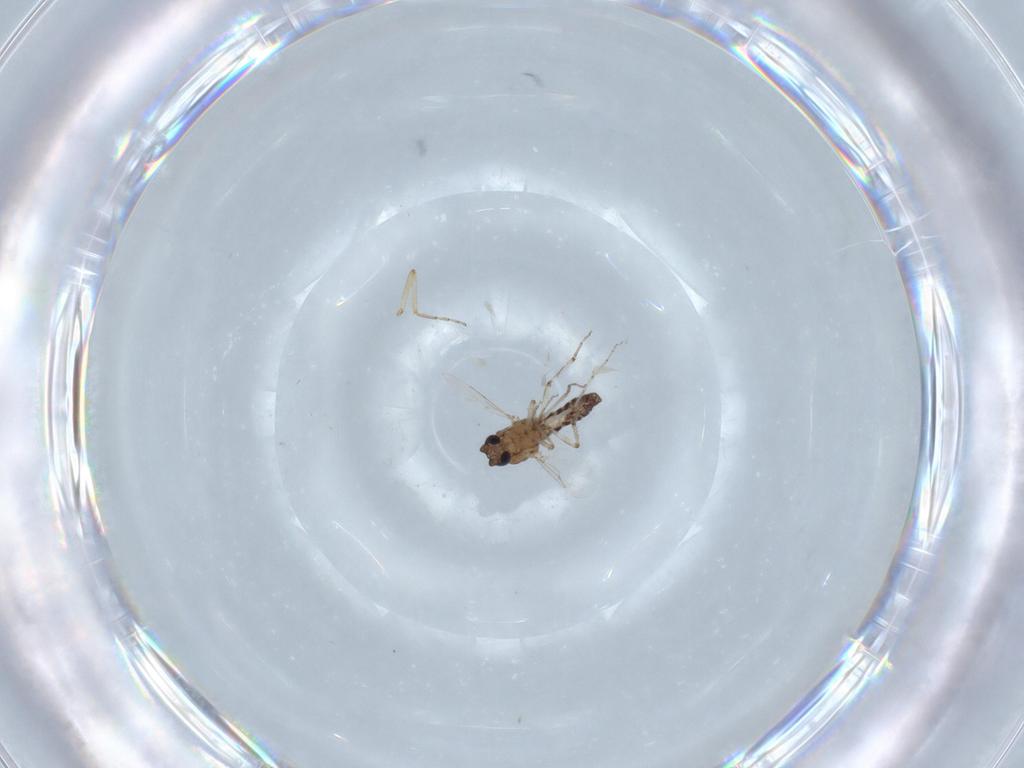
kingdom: Animalia
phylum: Arthropoda
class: Insecta
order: Diptera
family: Ceratopogonidae
